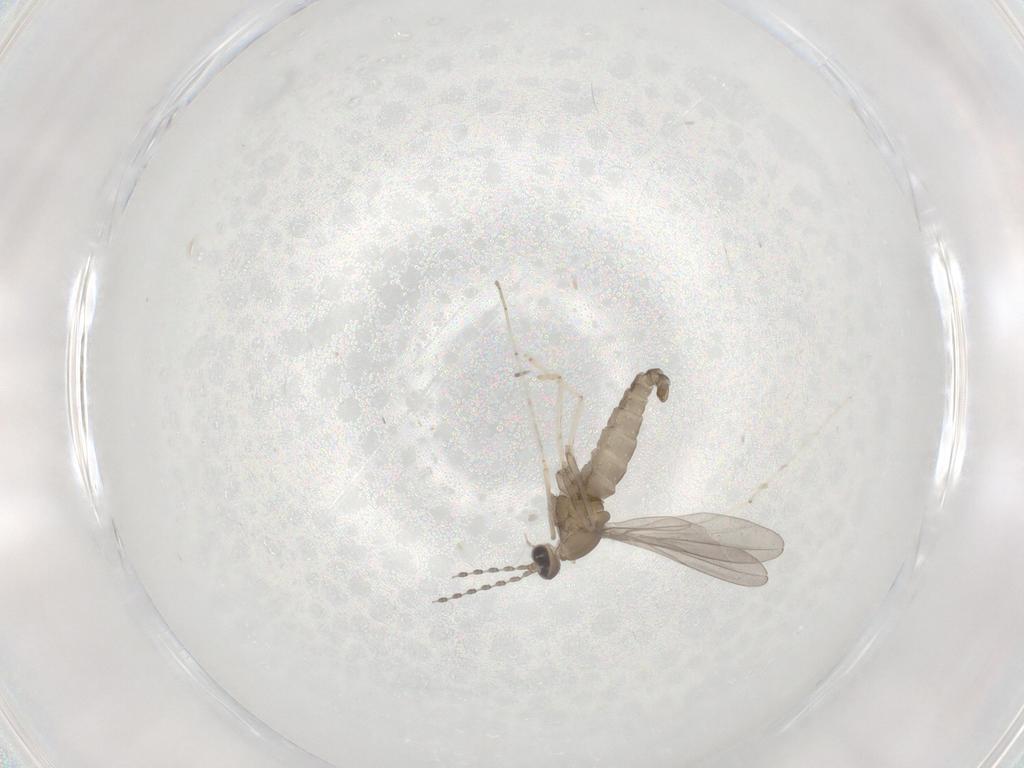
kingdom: Animalia
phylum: Arthropoda
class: Insecta
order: Diptera
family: Cecidomyiidae
